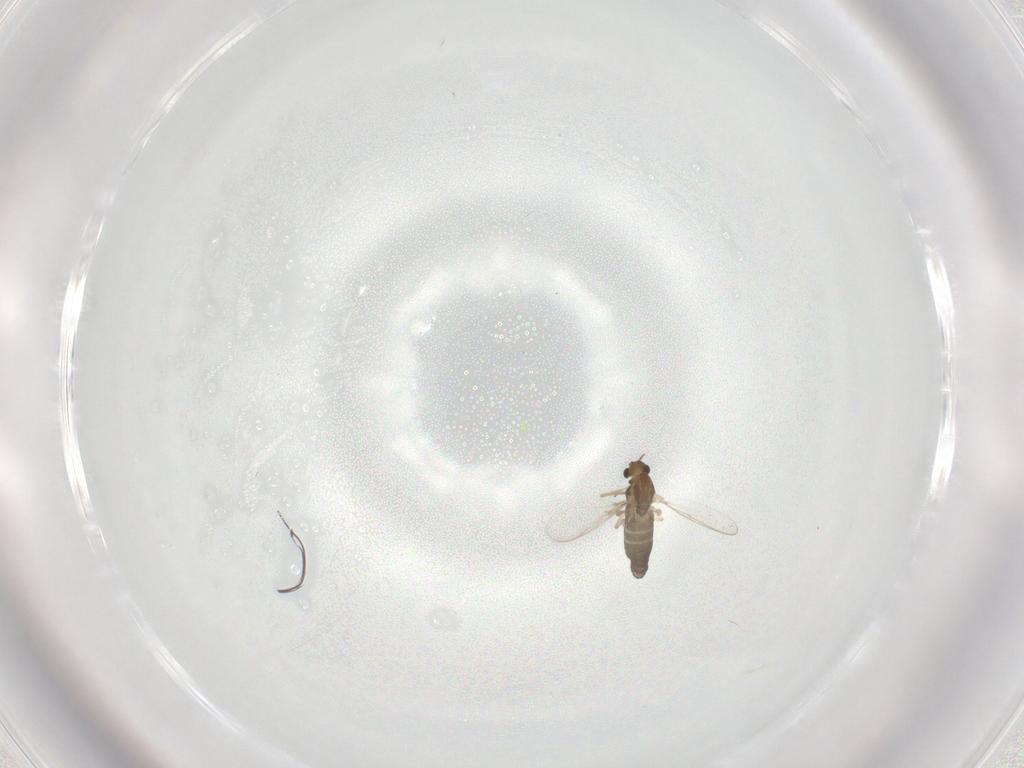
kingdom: Animalia
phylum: Arthropoda
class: Insecta
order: Diptera
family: Chironomidae
